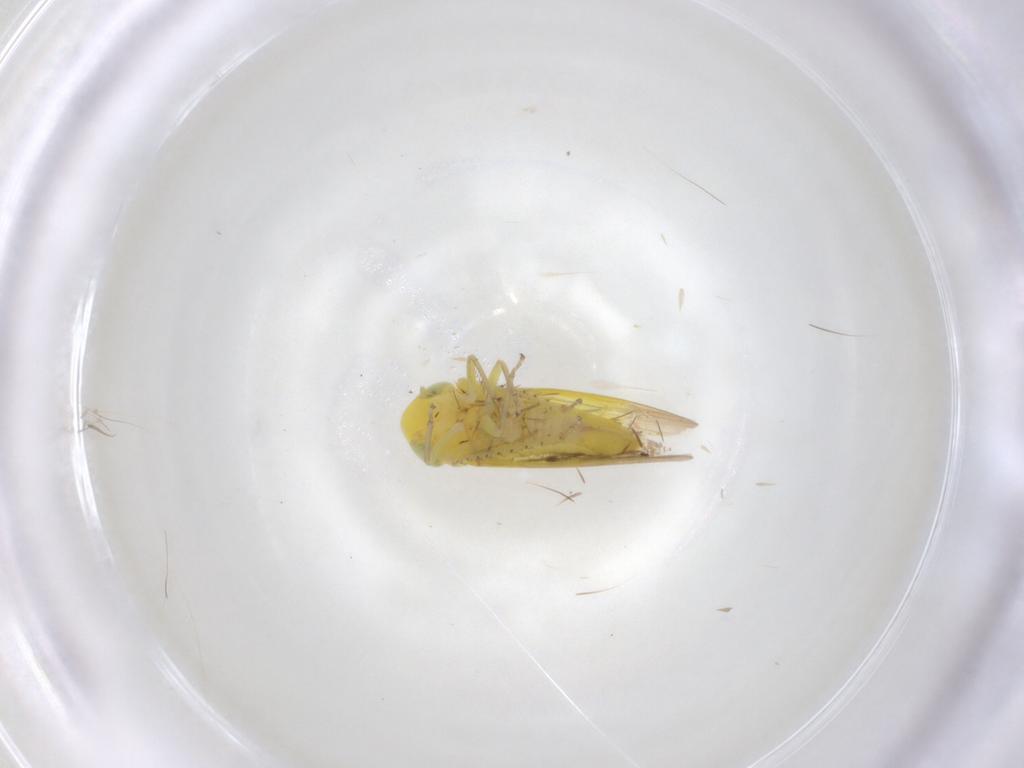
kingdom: Animalia
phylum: Arthropoda
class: Insecta
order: Hemiptera
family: Cicadellidae
